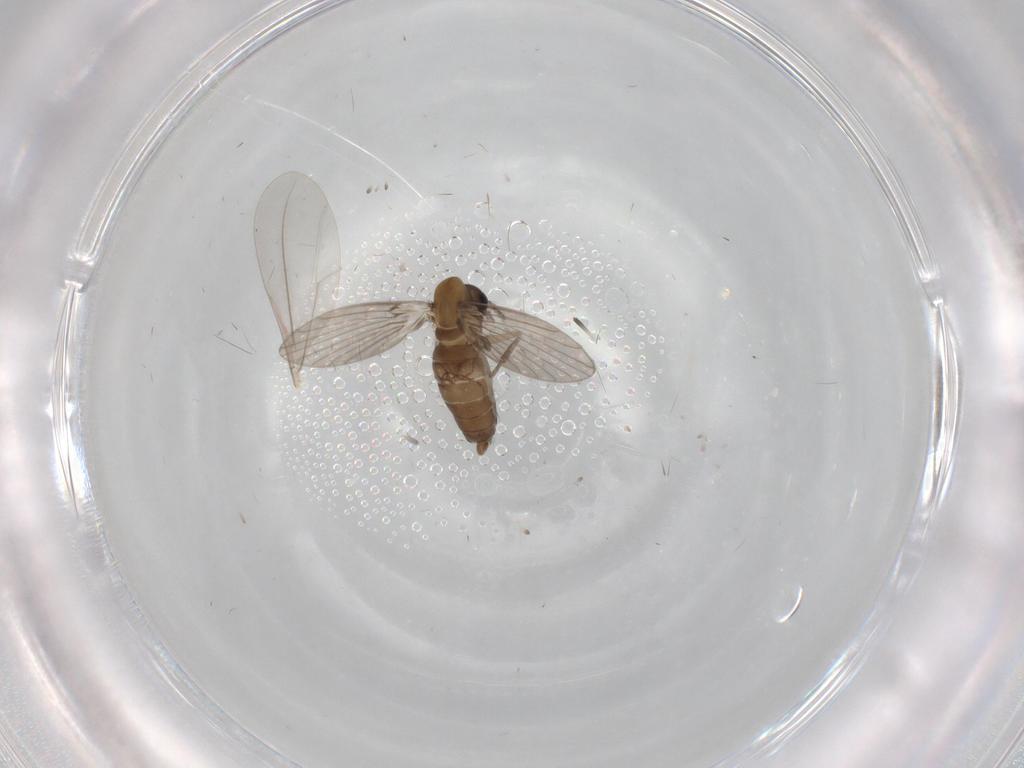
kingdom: Animalia
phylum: Arthropoda
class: Insecta
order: Diptera
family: Psychodidae
